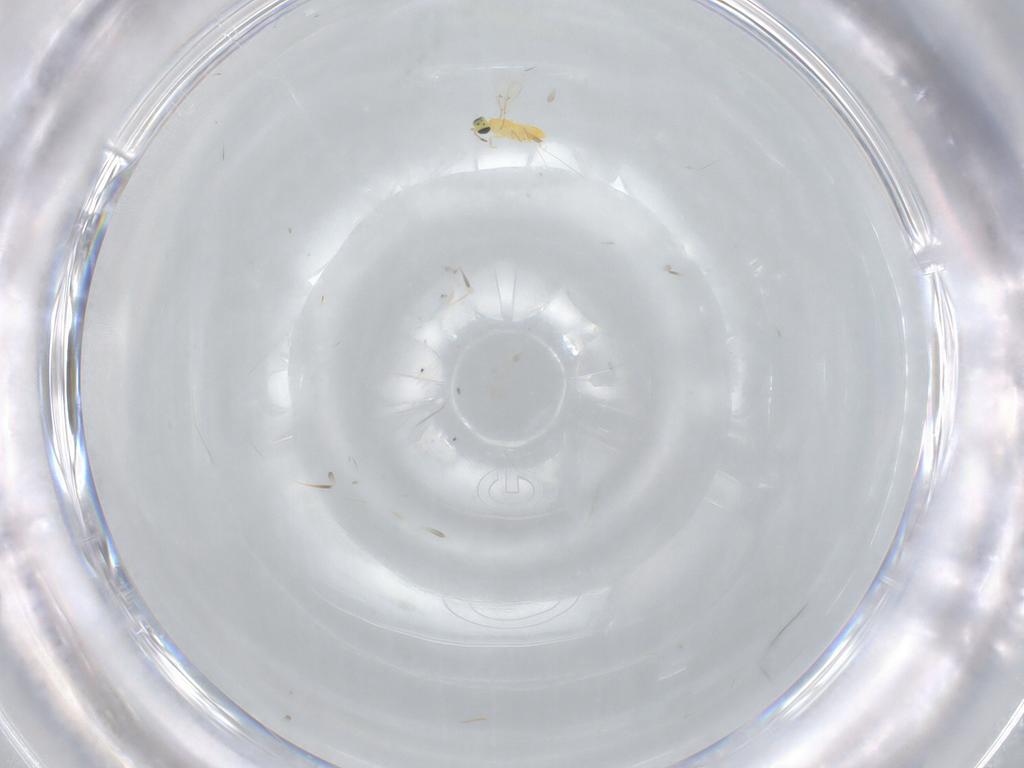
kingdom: Animalia
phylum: Arthropoda
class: Insecta
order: Hymenoptera
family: Trichogrammatidae
